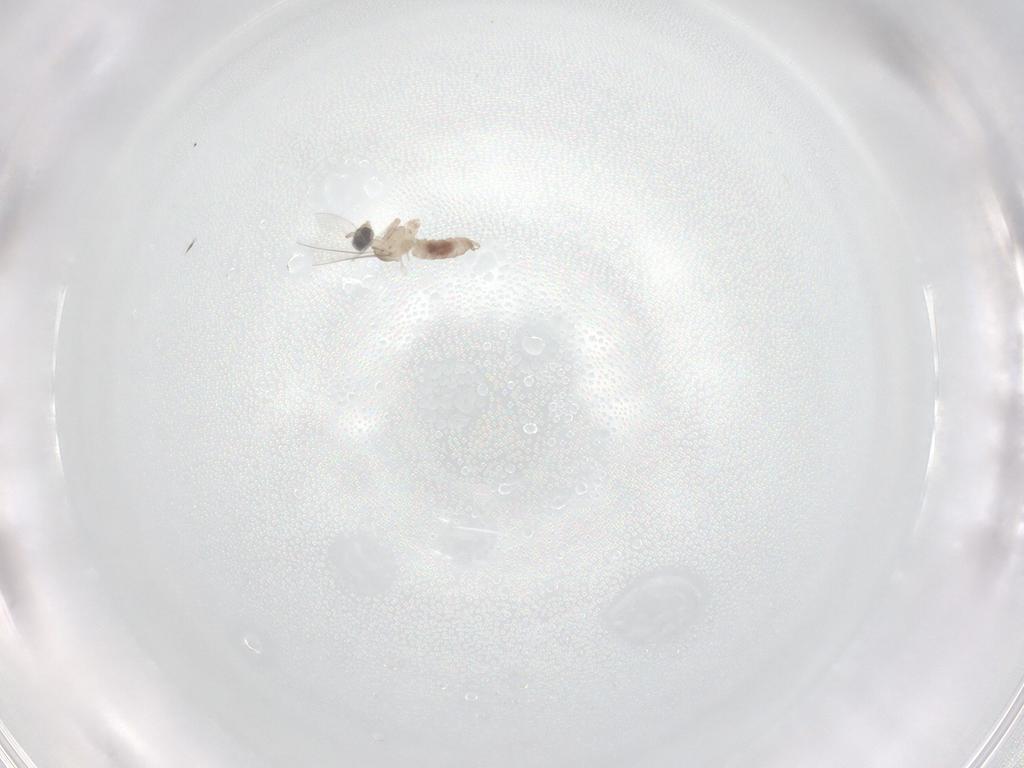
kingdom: Animalia
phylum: Arthropoda
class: Insecta
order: Diptera
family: Cecidomyiidae
